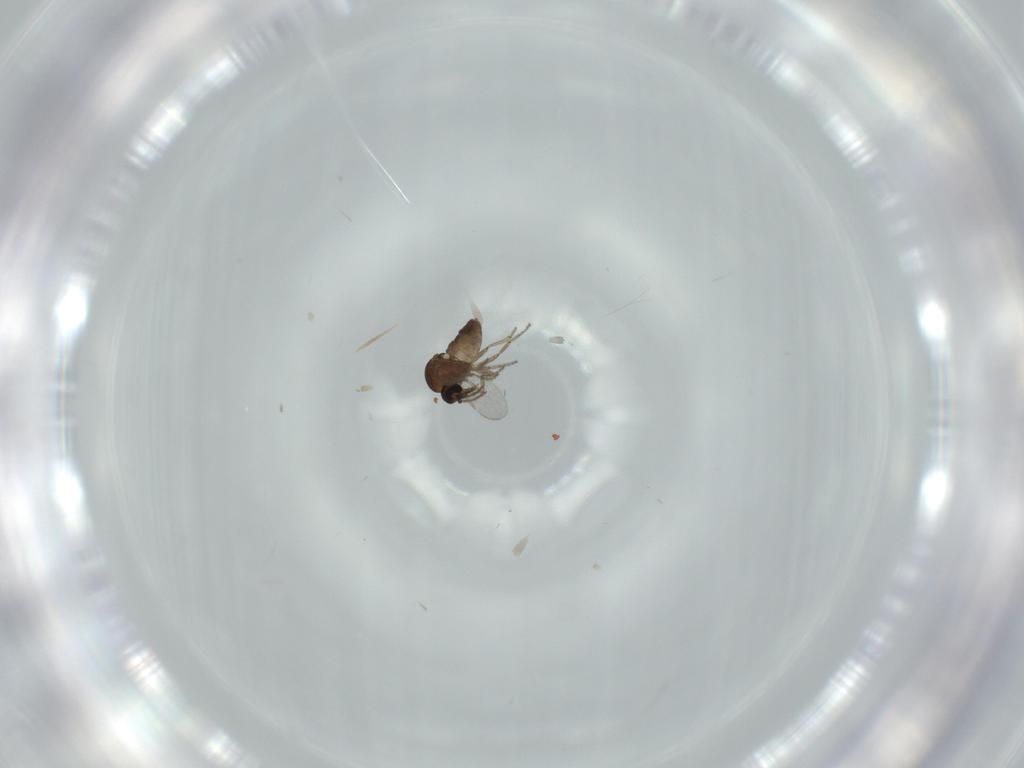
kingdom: Animalia
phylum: Arthropoda
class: Insecta
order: Diptera
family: Ceratopogonidae
